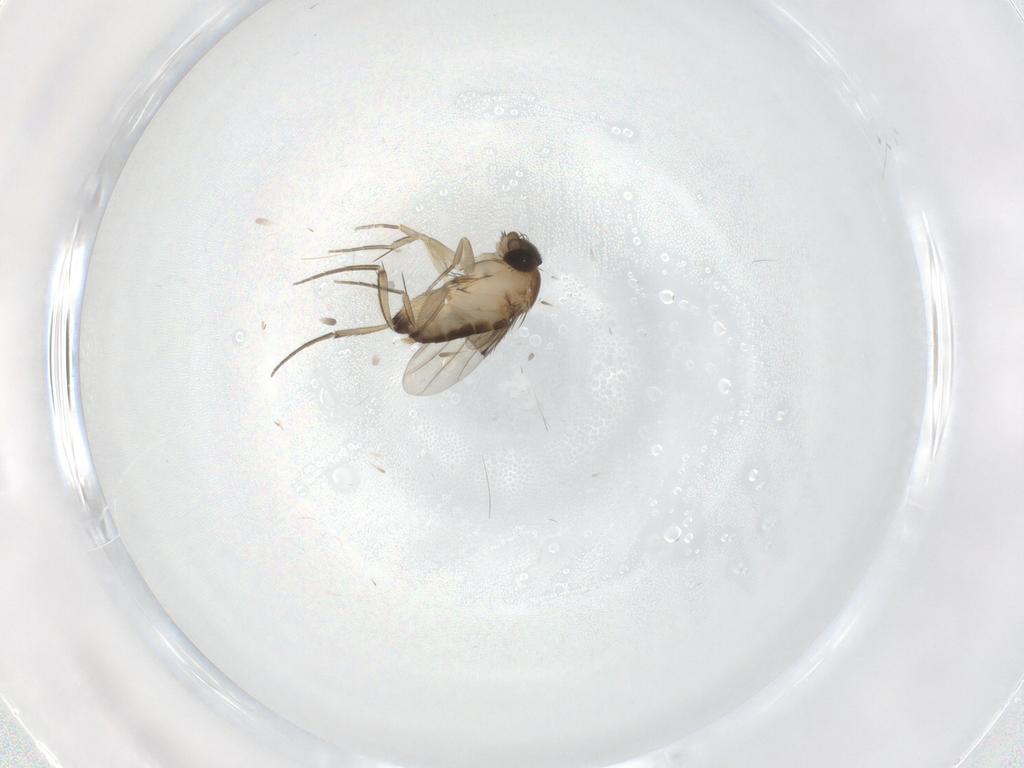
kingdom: Animalia
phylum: Arthropoda
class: Insecta
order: Diptera
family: Phoridae
